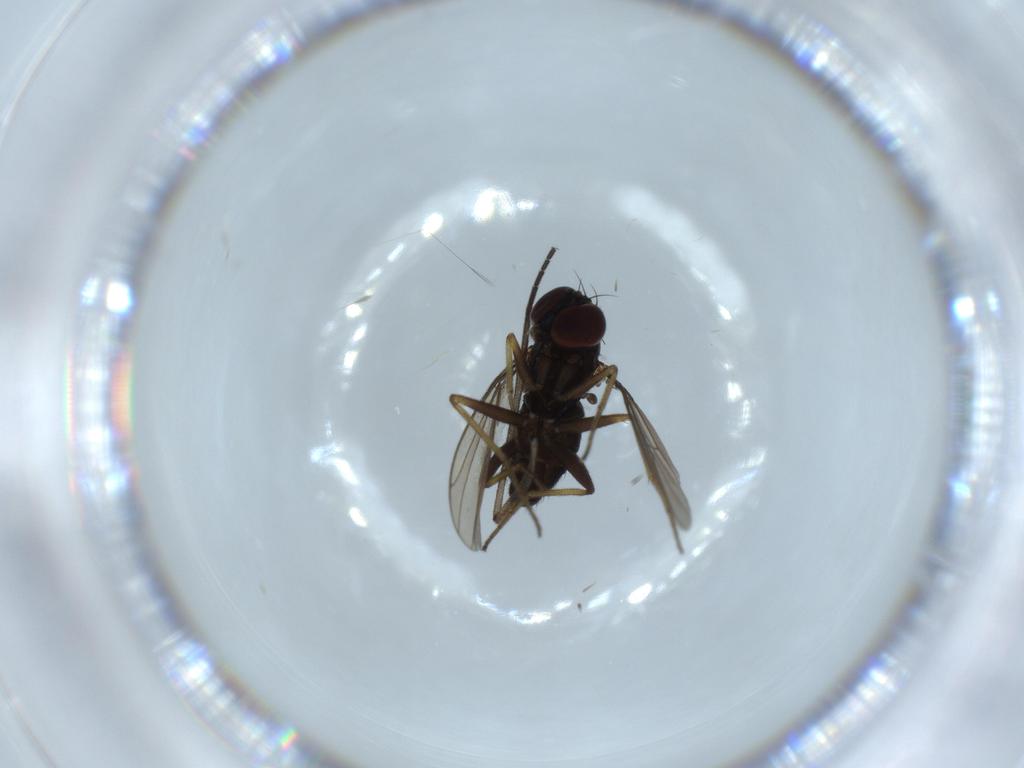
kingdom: Animalia
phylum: Arthropoda
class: Insecta
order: Diptera
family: Dolichopodidae
